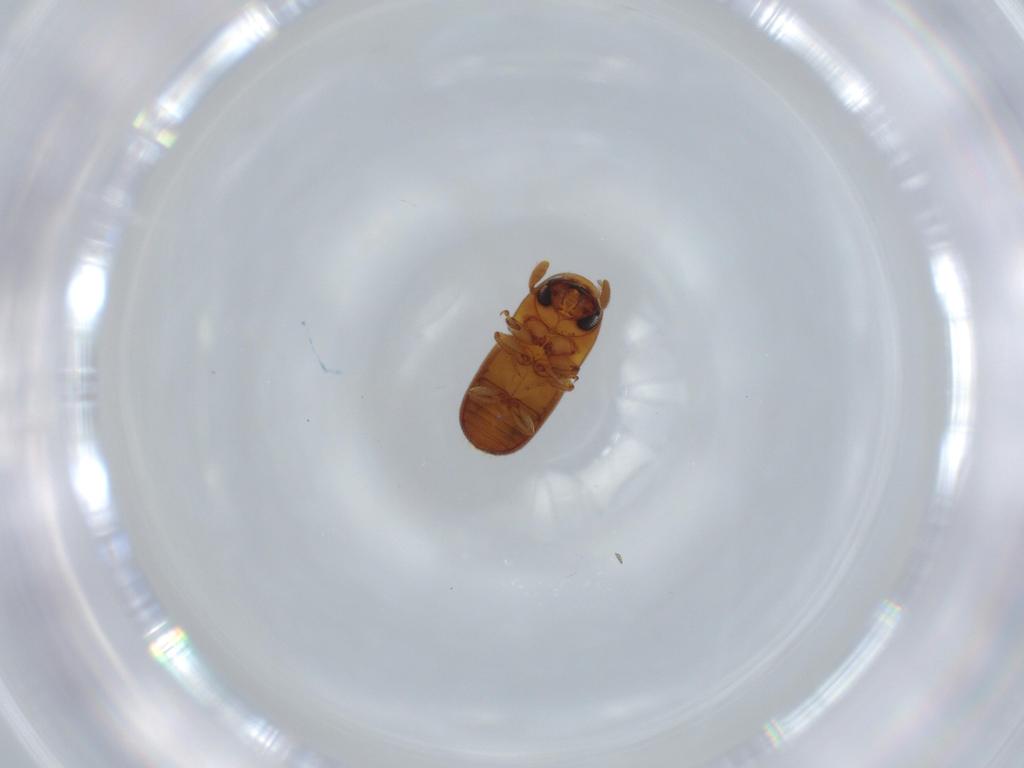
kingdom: Animalia
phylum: Arthropoda
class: Insecta
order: Coleoptera
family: Curculionidae
